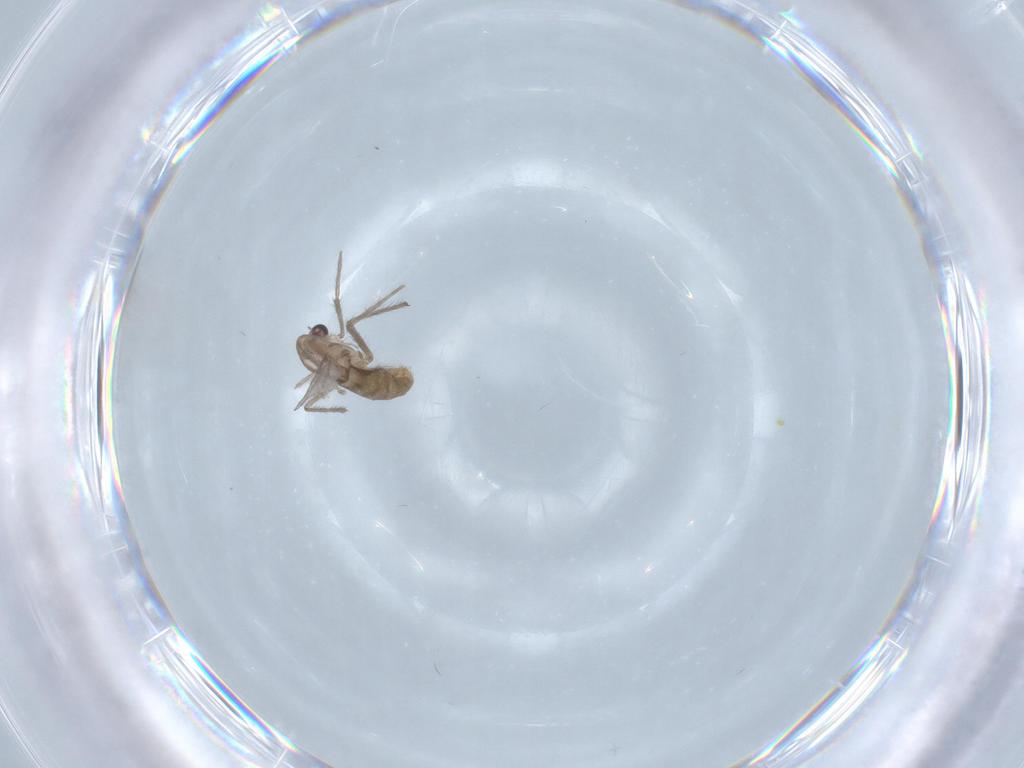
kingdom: Animalia
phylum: Arthropoda
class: Insecta
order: Diptera
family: Chironomidae
